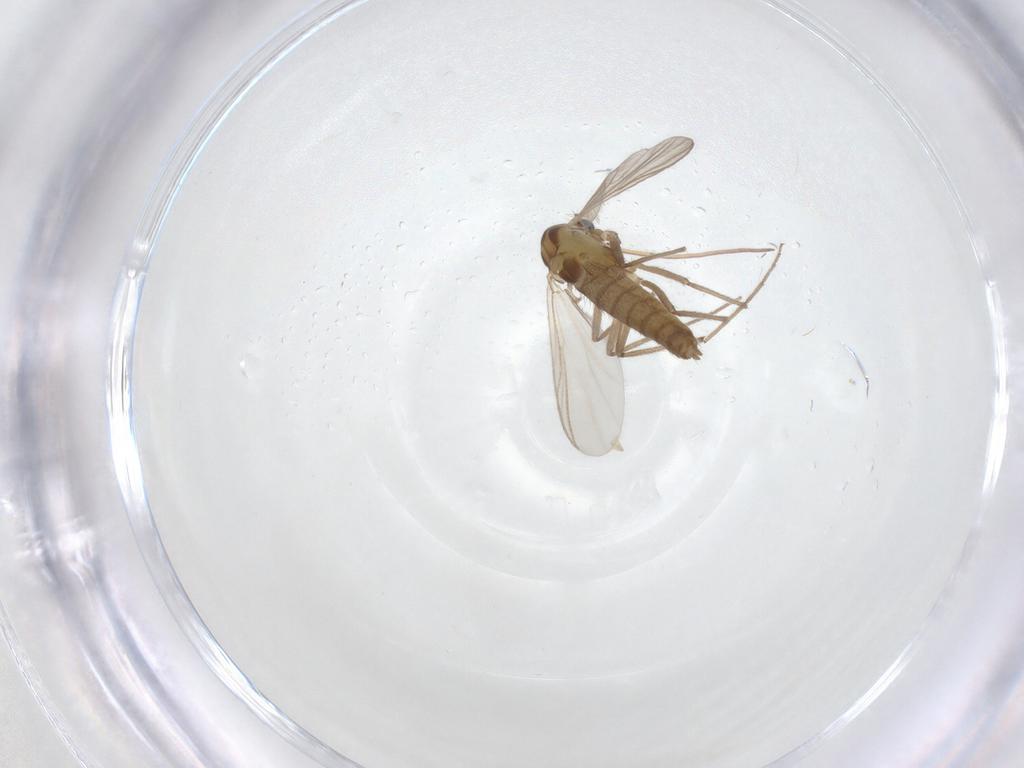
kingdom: Animalia
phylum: Arthropoda
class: Insecta
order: Diptera
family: Chironomidae
